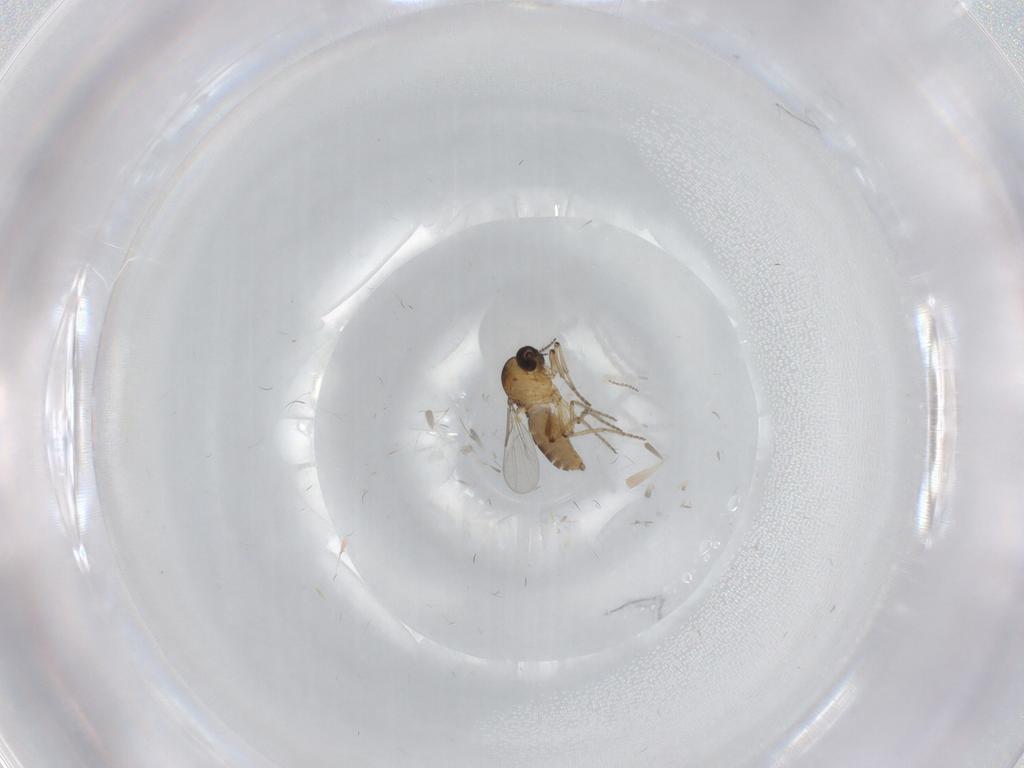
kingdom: Animalia
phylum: Arthropoda
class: Insecta
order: Diptera
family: Ceratopogonidae
